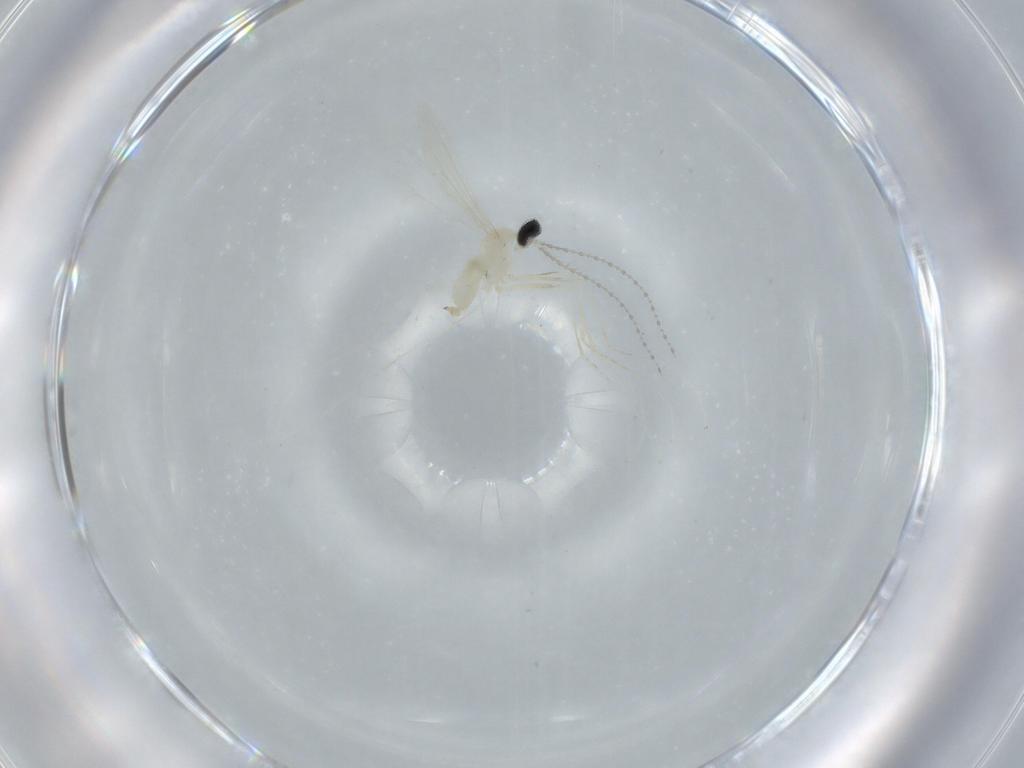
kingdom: Animalia
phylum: Arthropoda
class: Insecta
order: Diptera
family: Cecidomyiidae
